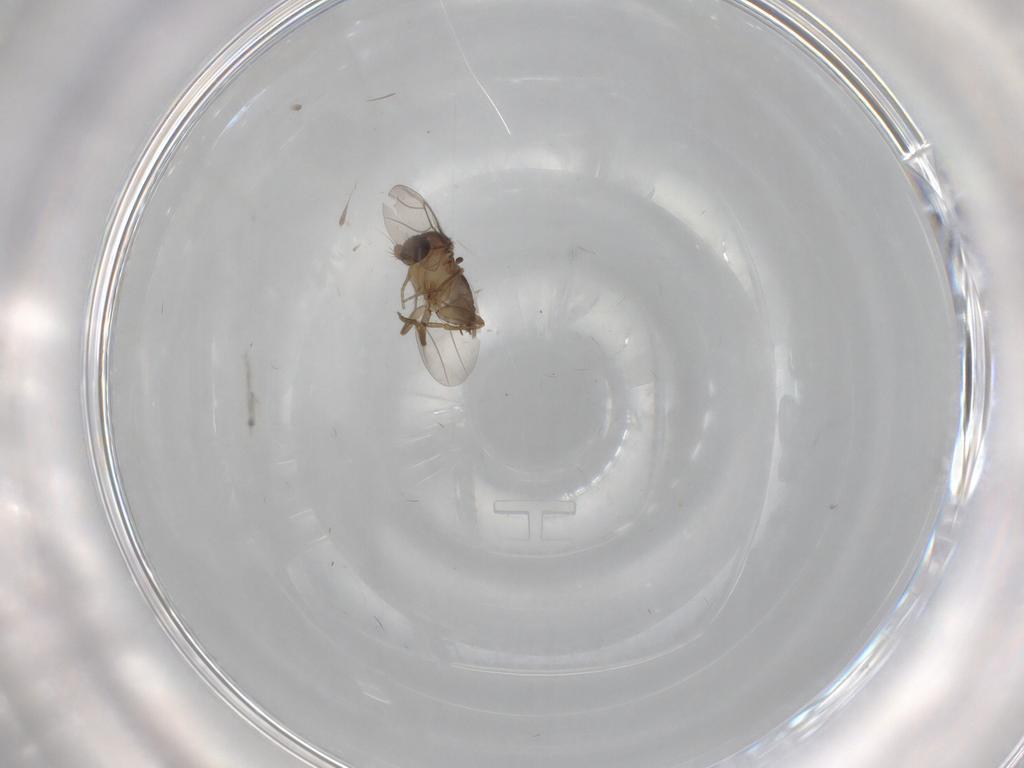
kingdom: Animalia
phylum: Arthropoda
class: Insecta
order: Diptera
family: Phoridae
